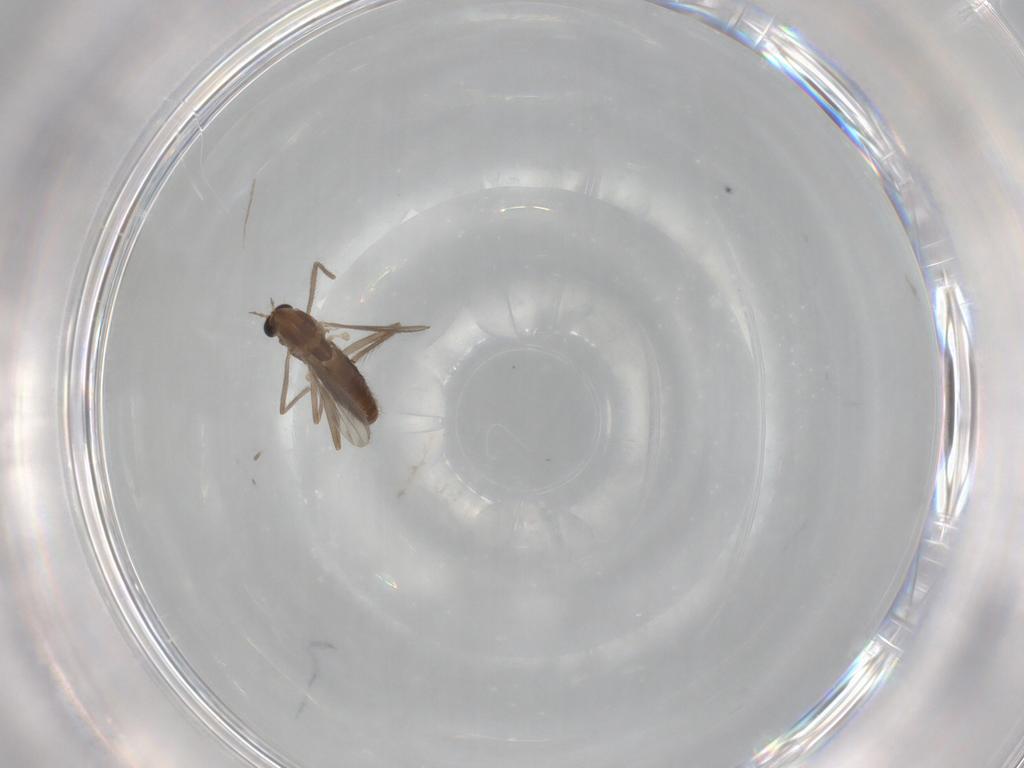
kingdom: Animalia
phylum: Arthropoda
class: Insecta
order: Diptera
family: Chironomidae
